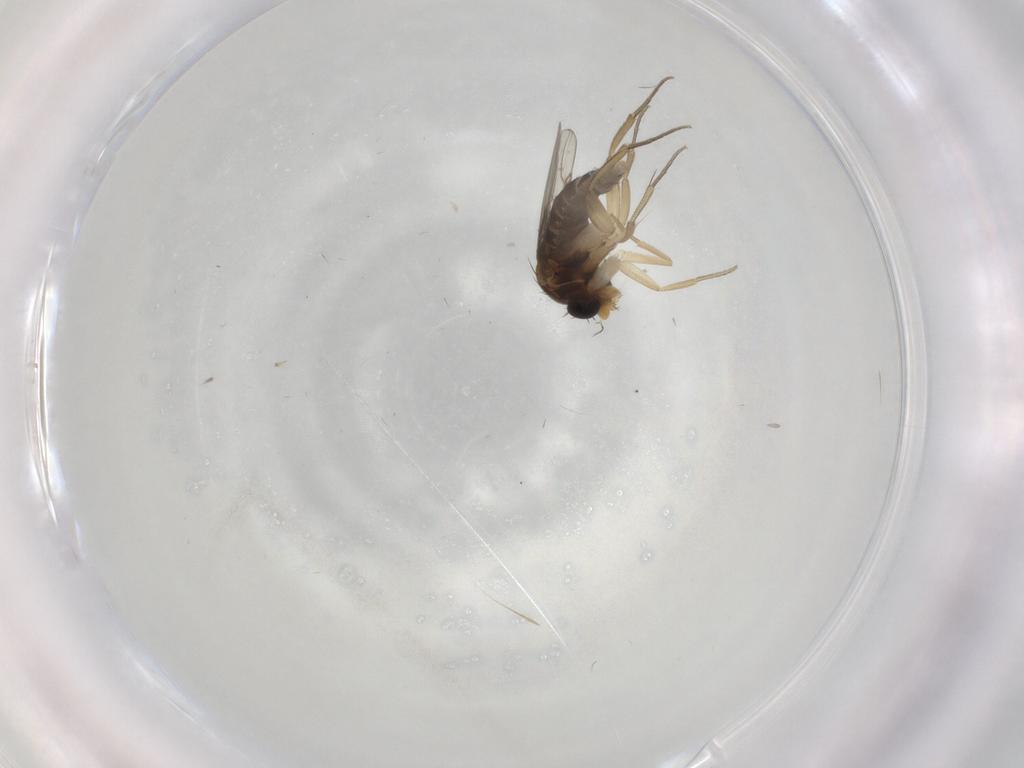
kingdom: Animalia
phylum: Arthropoda
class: Insecta
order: Diptera
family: Phoridae
